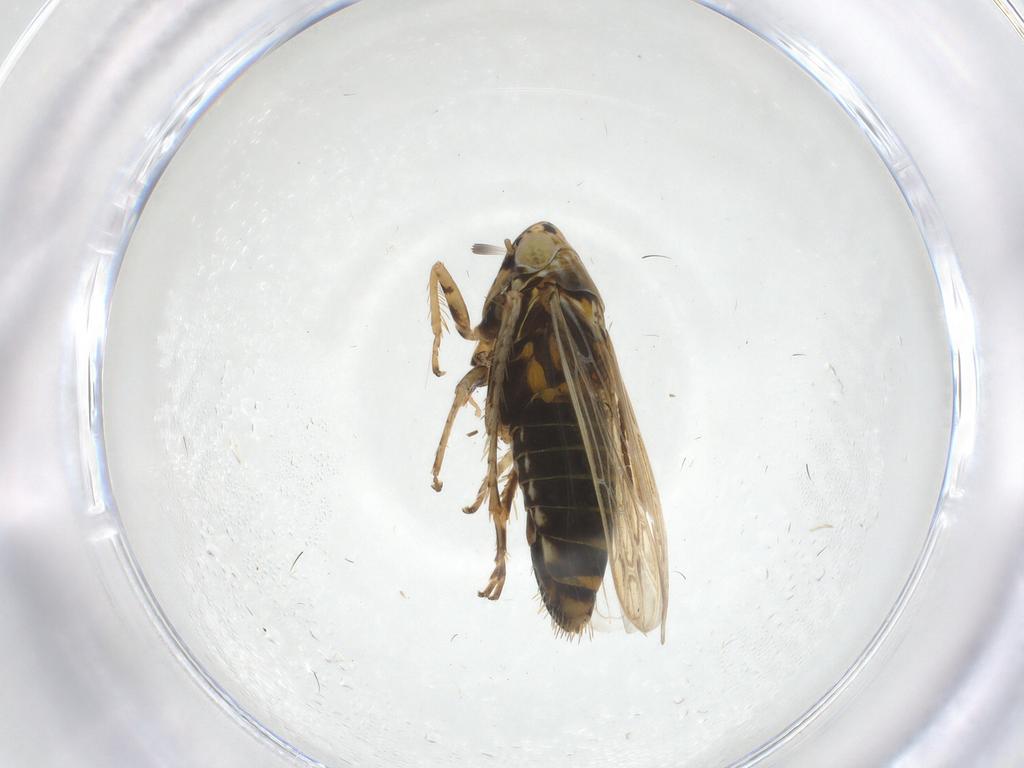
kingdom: Animalia
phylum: Arthropoda
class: Insecta
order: Hemiptera
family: Cicadellidae
